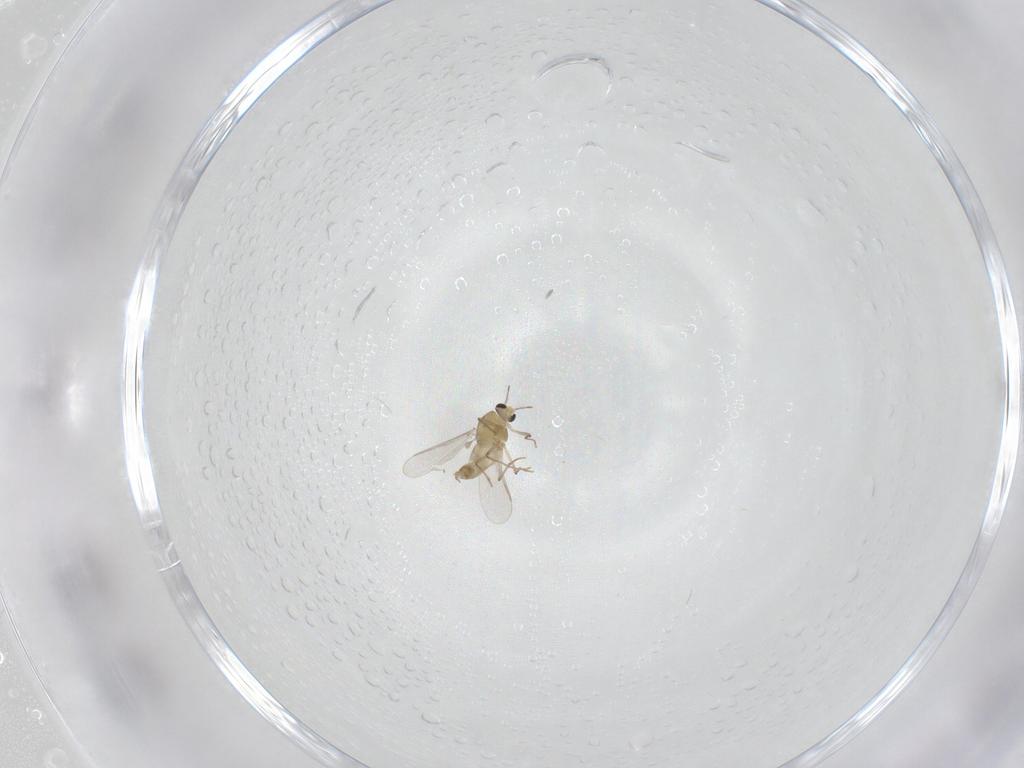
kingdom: Animalia
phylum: Arthropoda
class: Insecta
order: Diptera
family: Chironomidae
